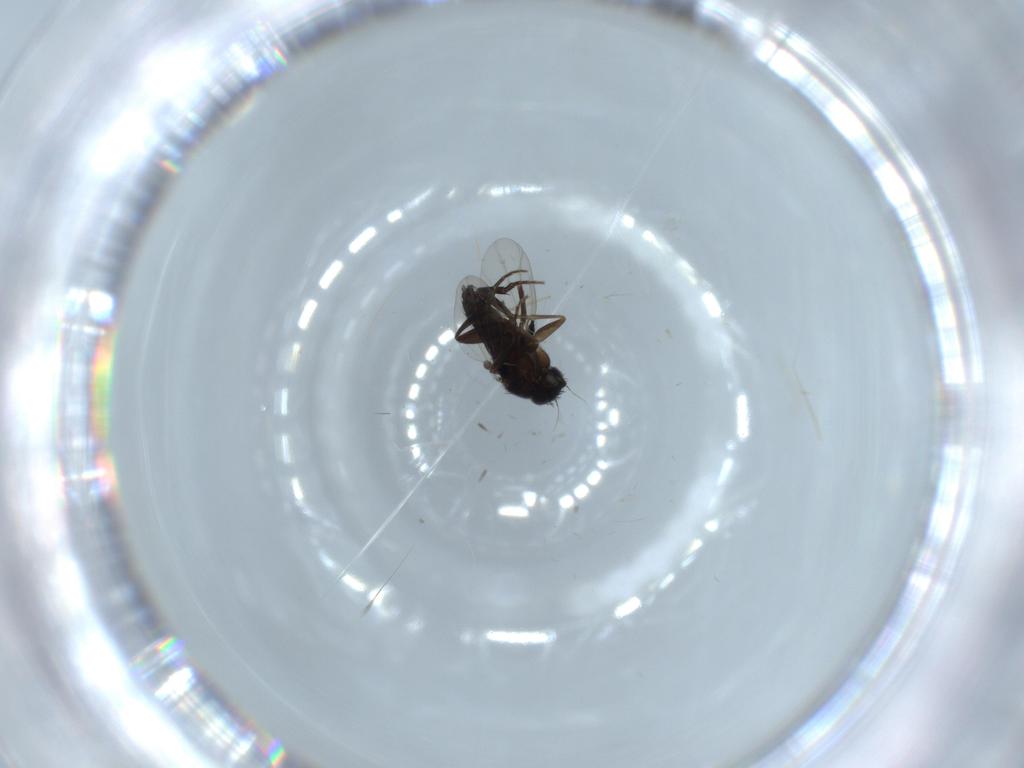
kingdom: Animalia
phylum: Arthropoda
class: Insecta
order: Diptera
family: Phoridae
